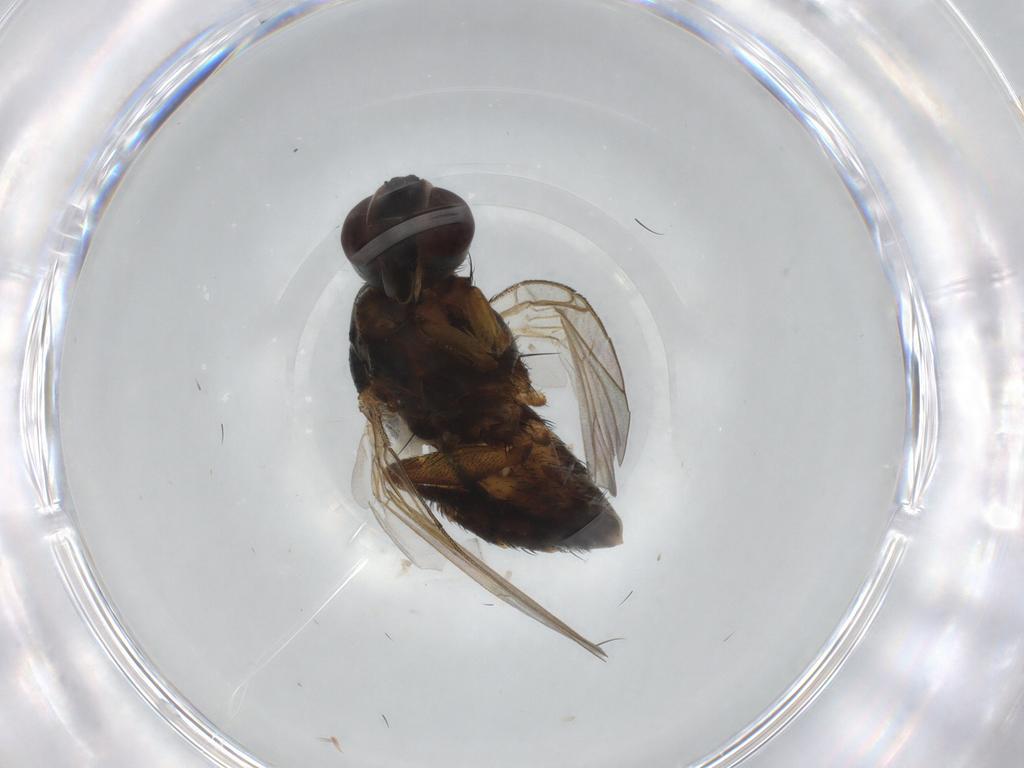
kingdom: Animalia
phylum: Arthropoda
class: Insecta
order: Diptera
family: Muscidae
